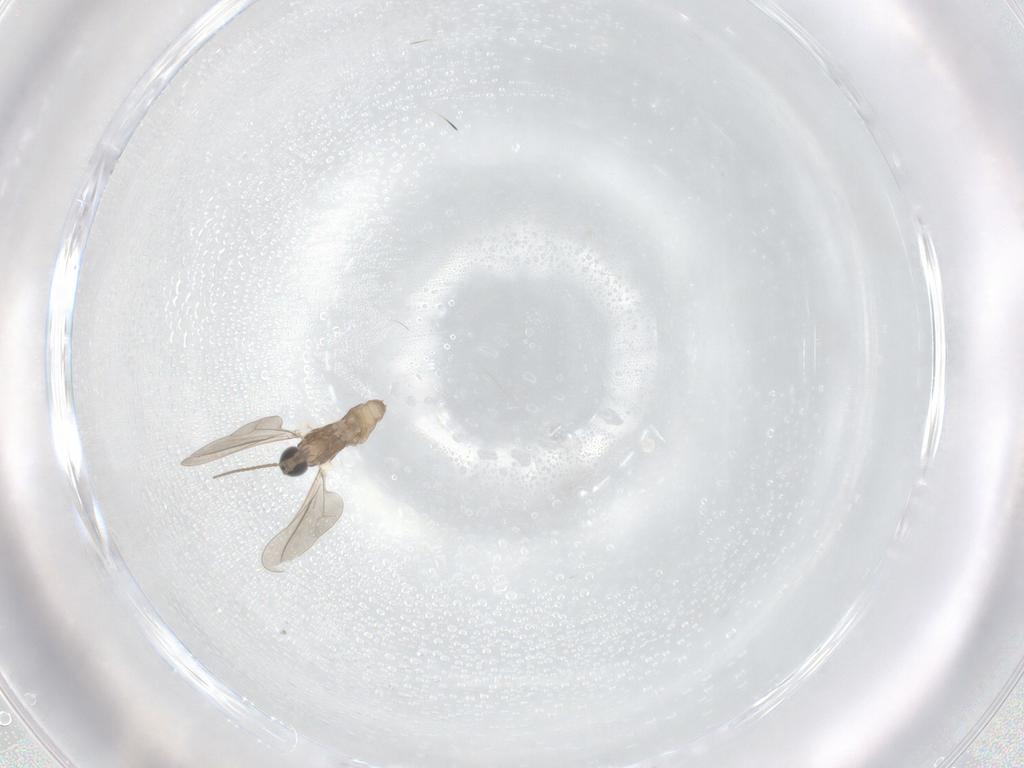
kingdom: Animalia
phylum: Arthropoda
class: Insecta
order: Diptera
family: Cecidomyiidae
